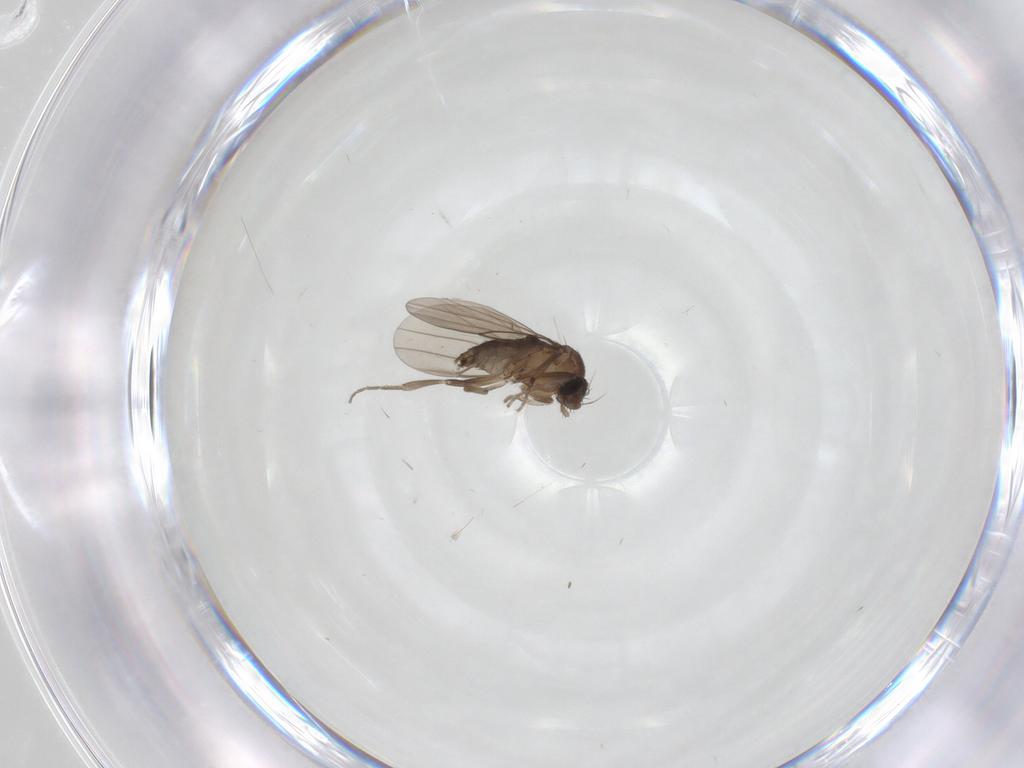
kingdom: Animalia
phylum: Arthropoda
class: Insecta
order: Diptera
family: Phoridae
